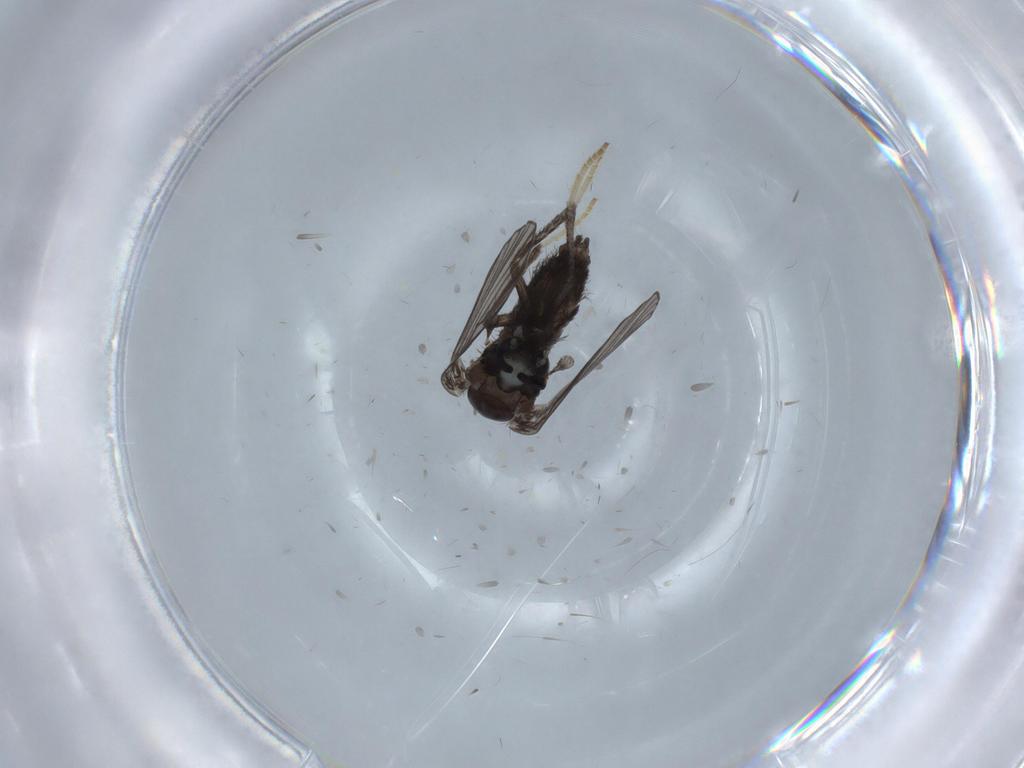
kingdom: Animalia
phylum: Arthropoda
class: Insecta
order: Diptera
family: Psychodidae
